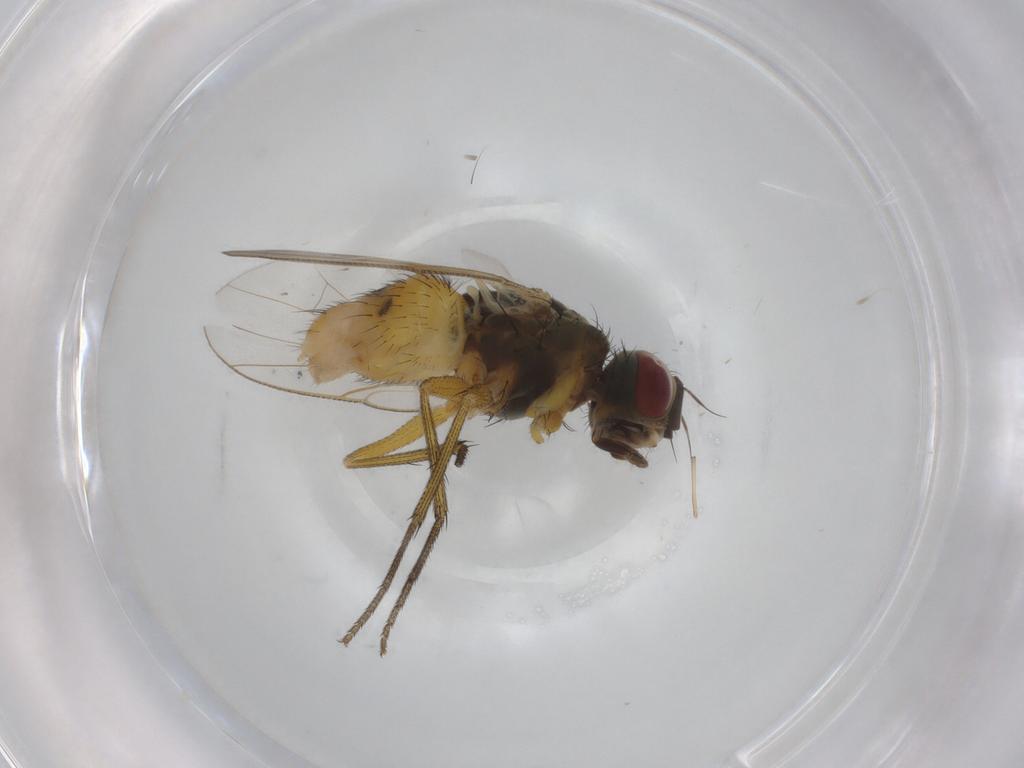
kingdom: Animalia
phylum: Arthropoda
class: Insecta
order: Diptera
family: Muscidae
